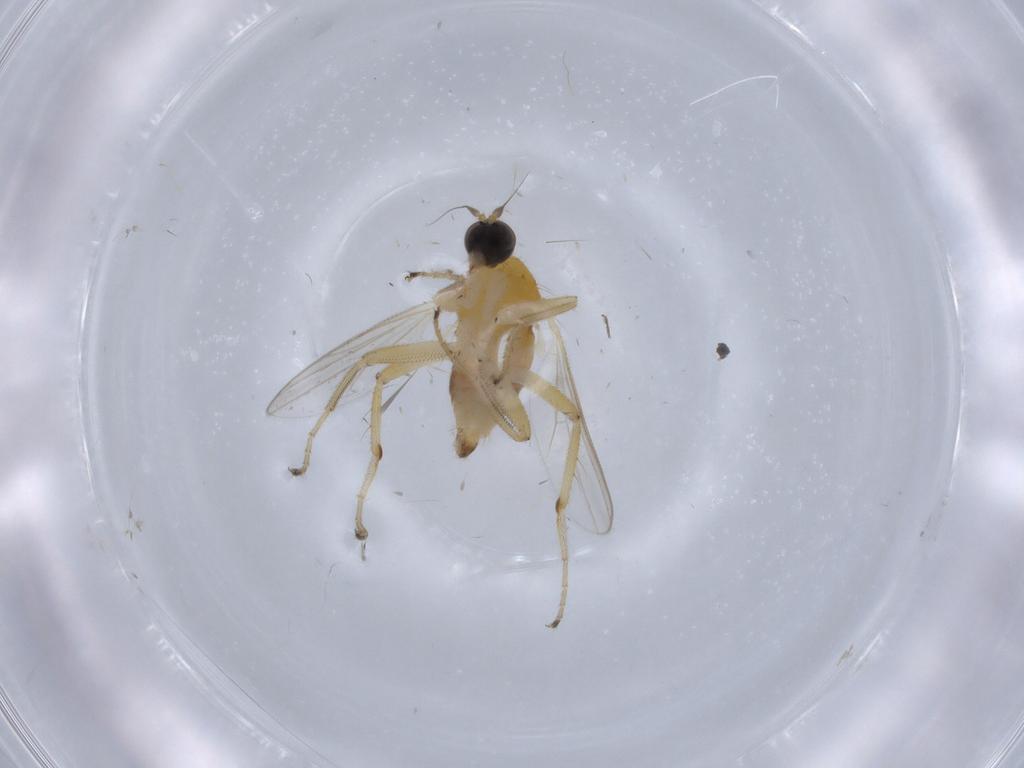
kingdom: Animalia
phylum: Arthropoda
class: Insecta
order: Diptera
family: Hybotidae
